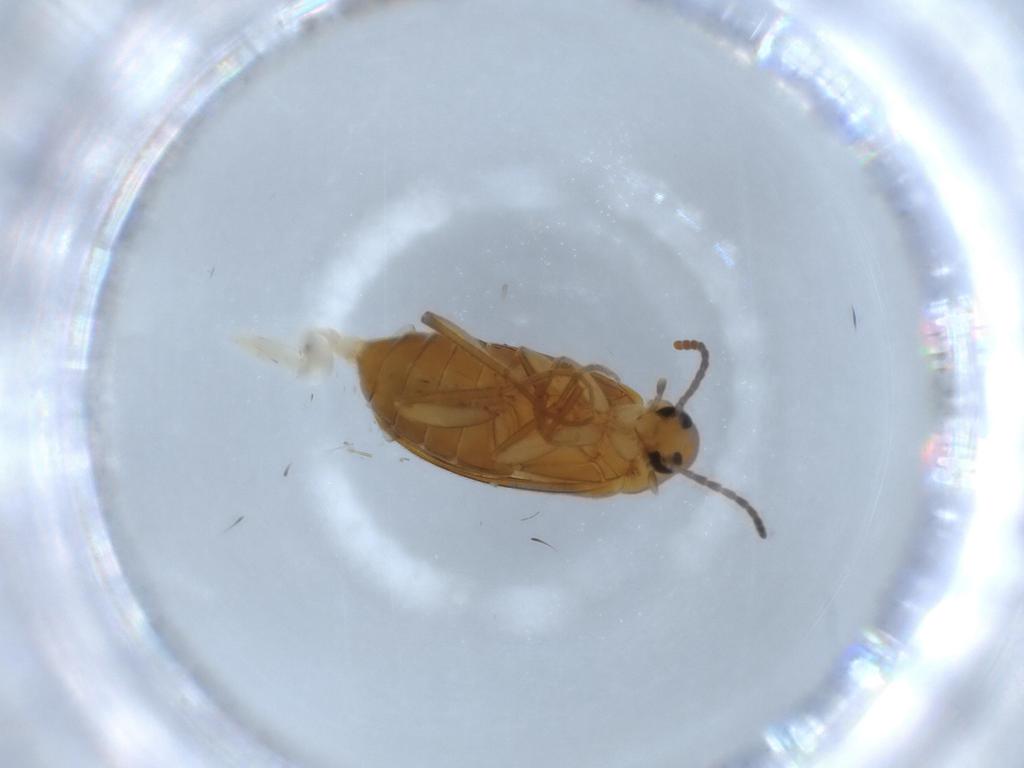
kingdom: Animalia
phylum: Arthropoda
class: Insecta
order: Coleoptera
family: Scraptiidae
